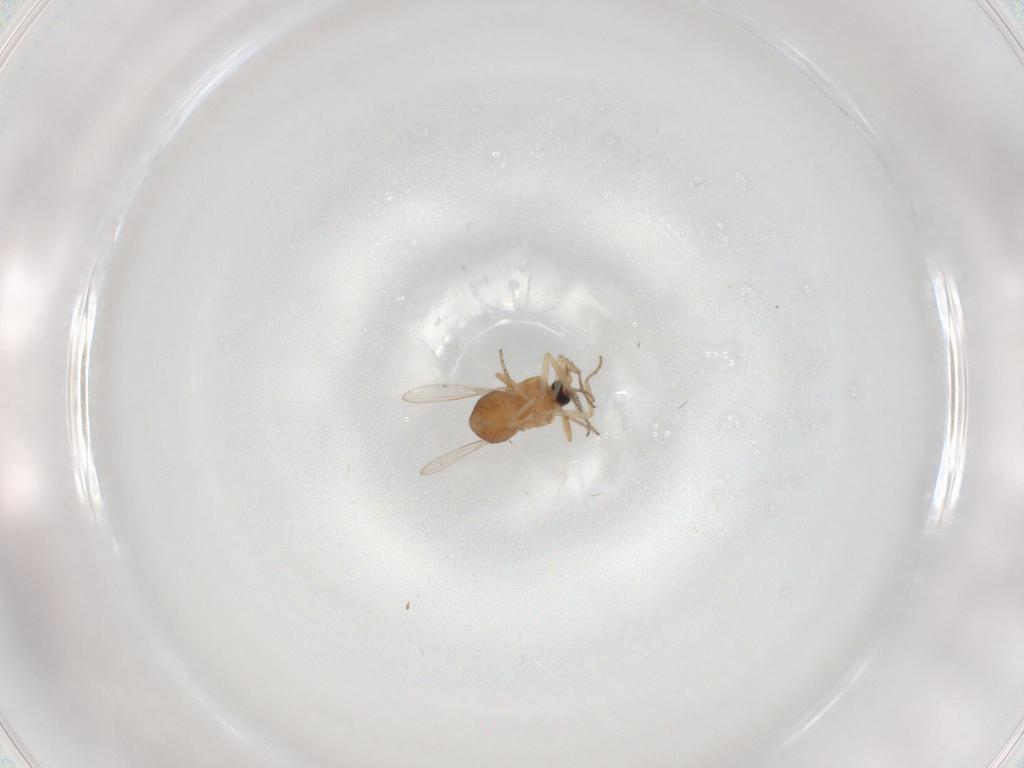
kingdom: Animalia
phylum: Arthropoda
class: Insecta
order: Diptera
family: Ceratopogonidae
